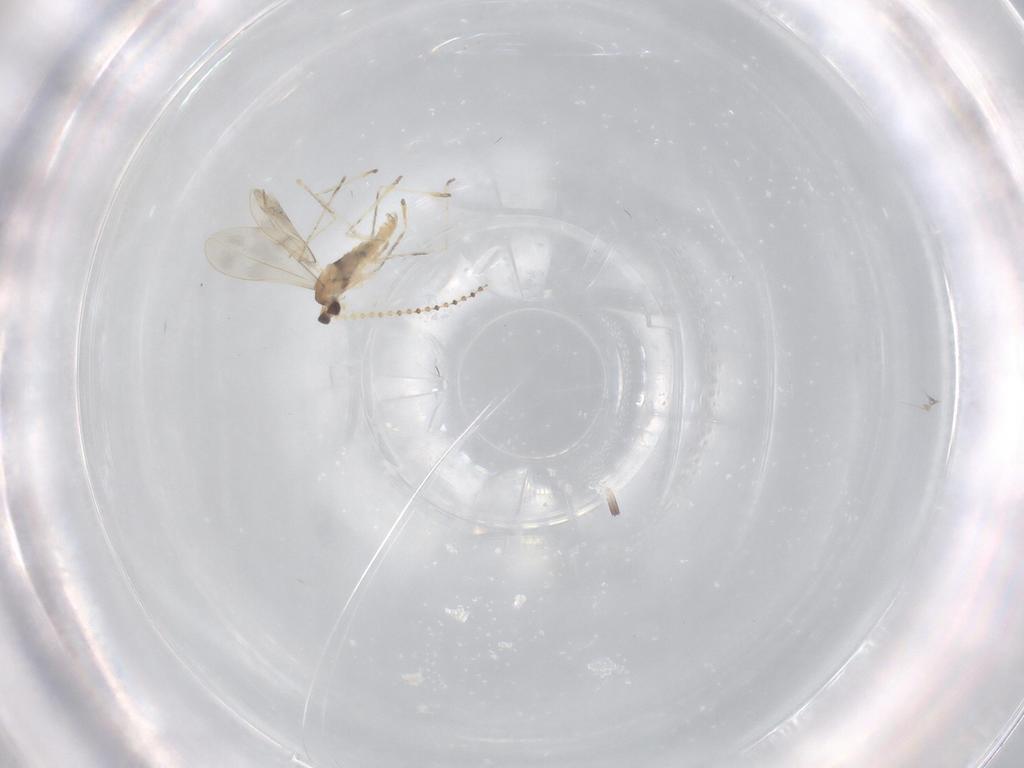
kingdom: Animalia
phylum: Arthropoda
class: Insecta
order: Diptera
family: Cecidomyiidae
